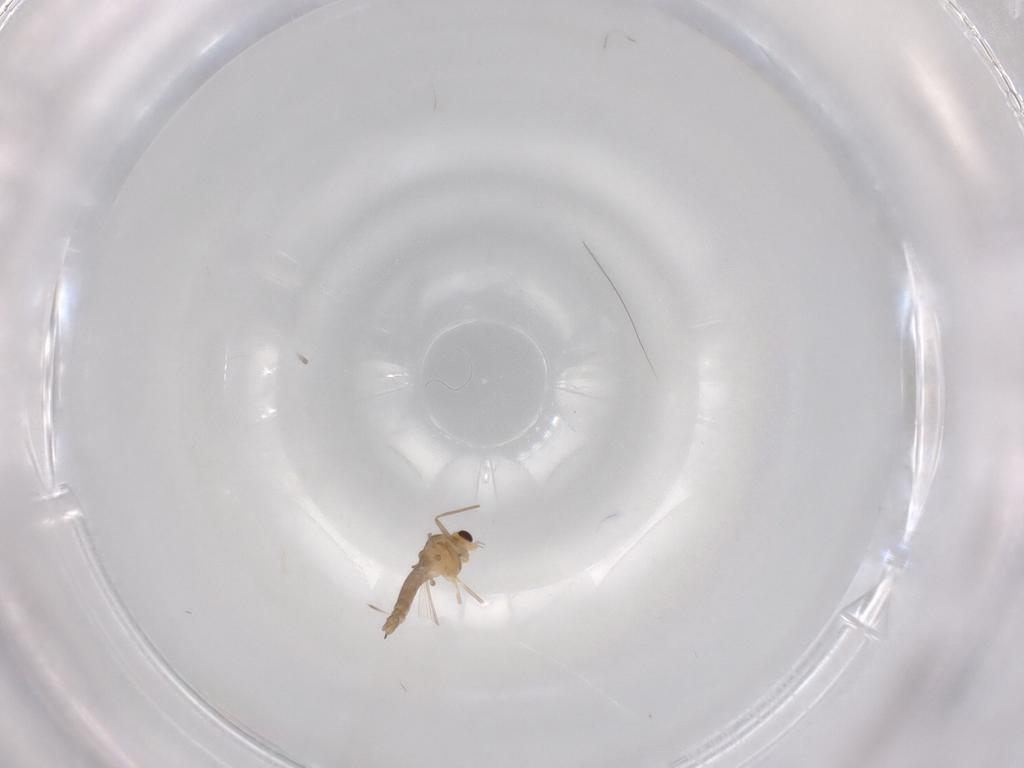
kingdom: Animalia
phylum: Arthropoda
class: Insecta
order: Diptera
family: Chironomidae
